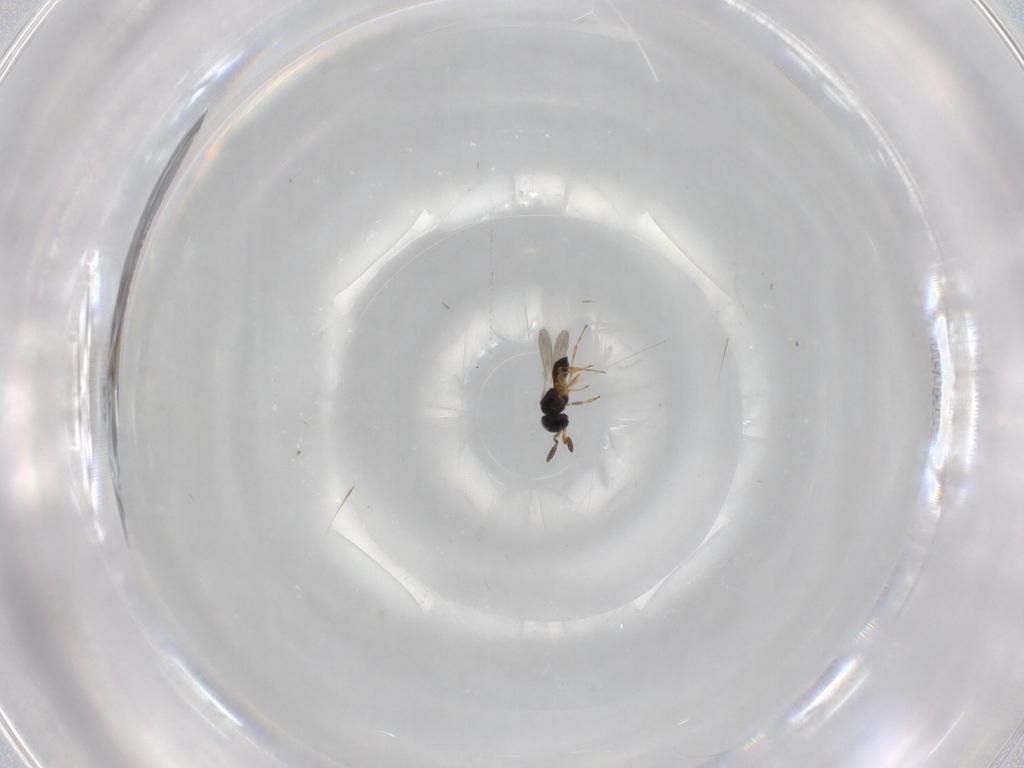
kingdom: Animalia
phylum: Arthropoda
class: Insecta
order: Hymenoptera
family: Scelionidae
